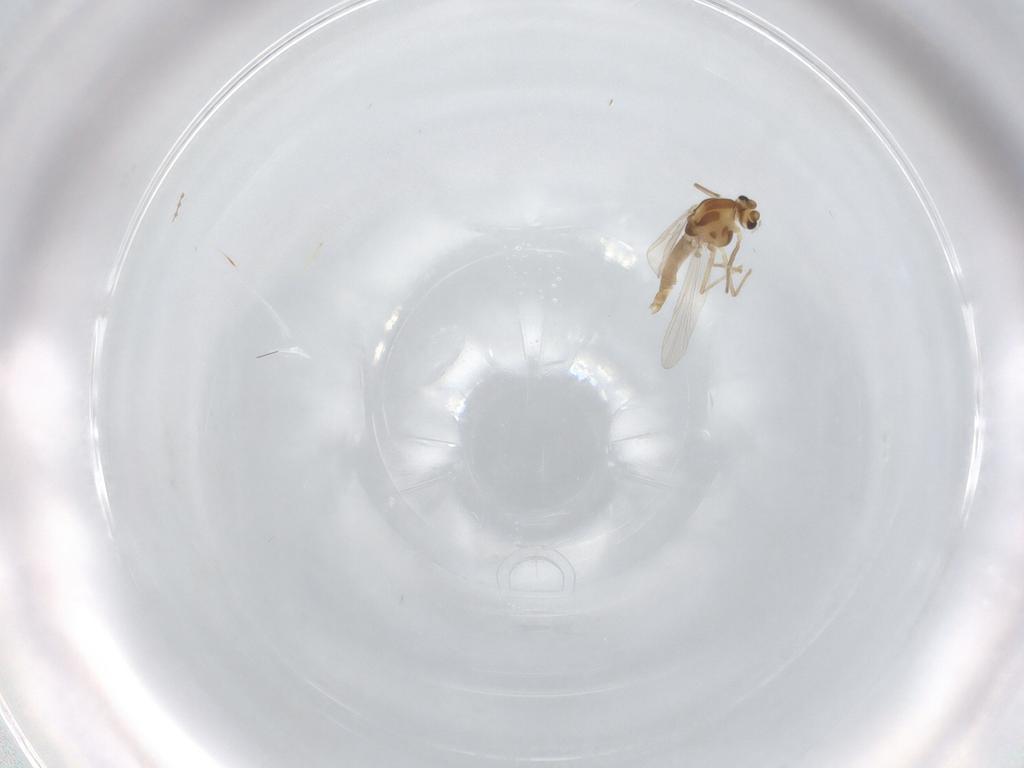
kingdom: Animalia
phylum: Arthropoda
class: Insecta
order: Diptera
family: Chironomidae
